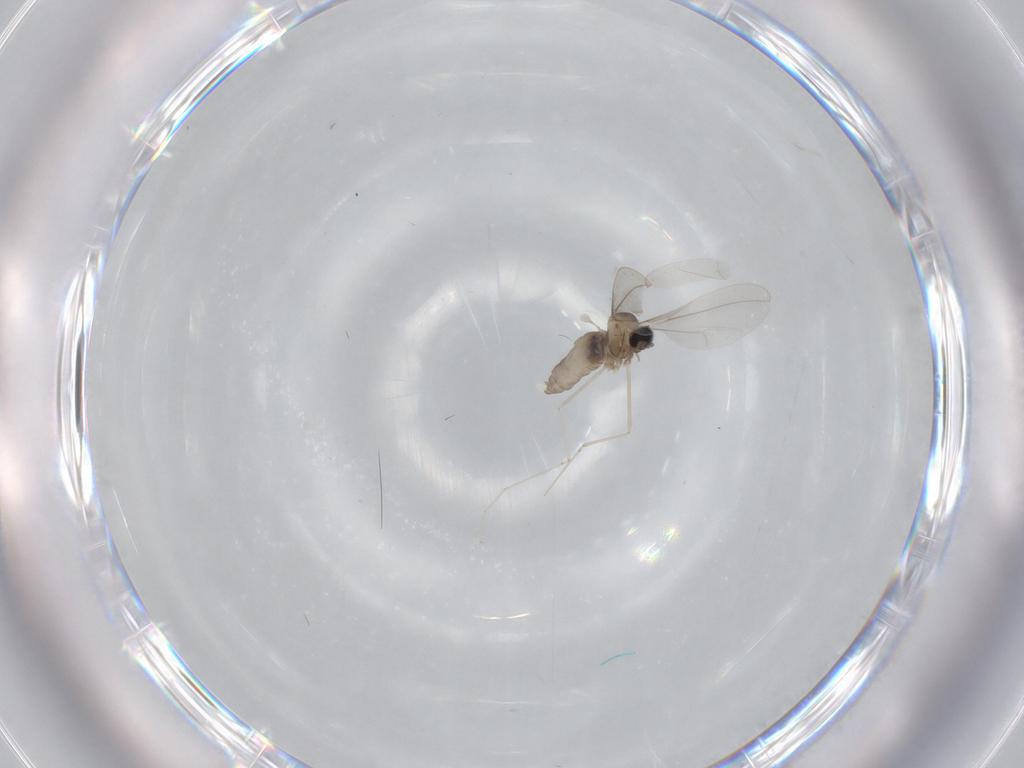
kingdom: Animalia
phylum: Arthropoda
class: Insecta
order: Diptera
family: Cecidomyiidae
